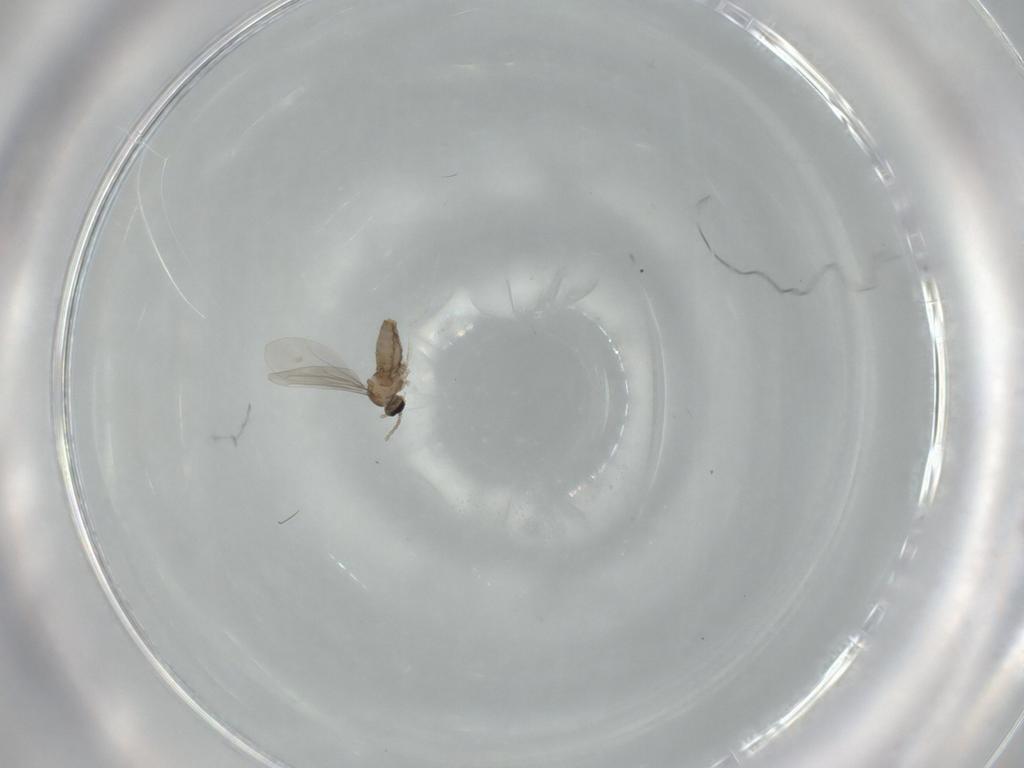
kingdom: Animalia
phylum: Arthropoda
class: Insecta
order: Diptera
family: Cecidomyiidae
